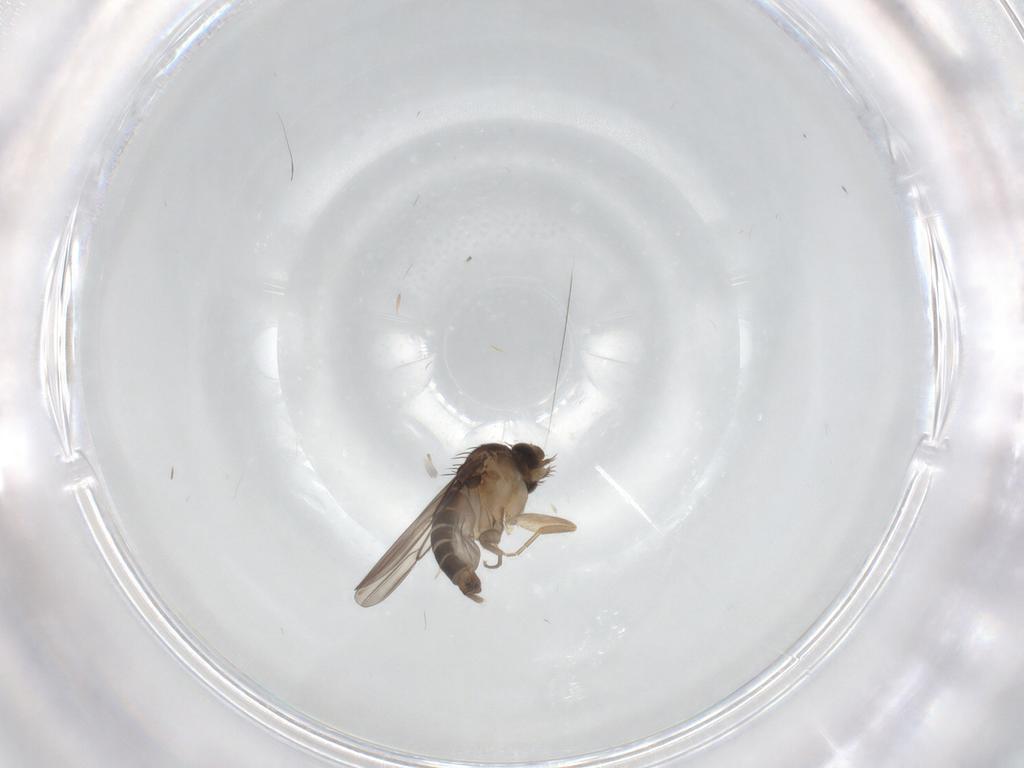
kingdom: Animalia
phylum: Arthropoda
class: Insecta
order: Diptera
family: Phoridae
